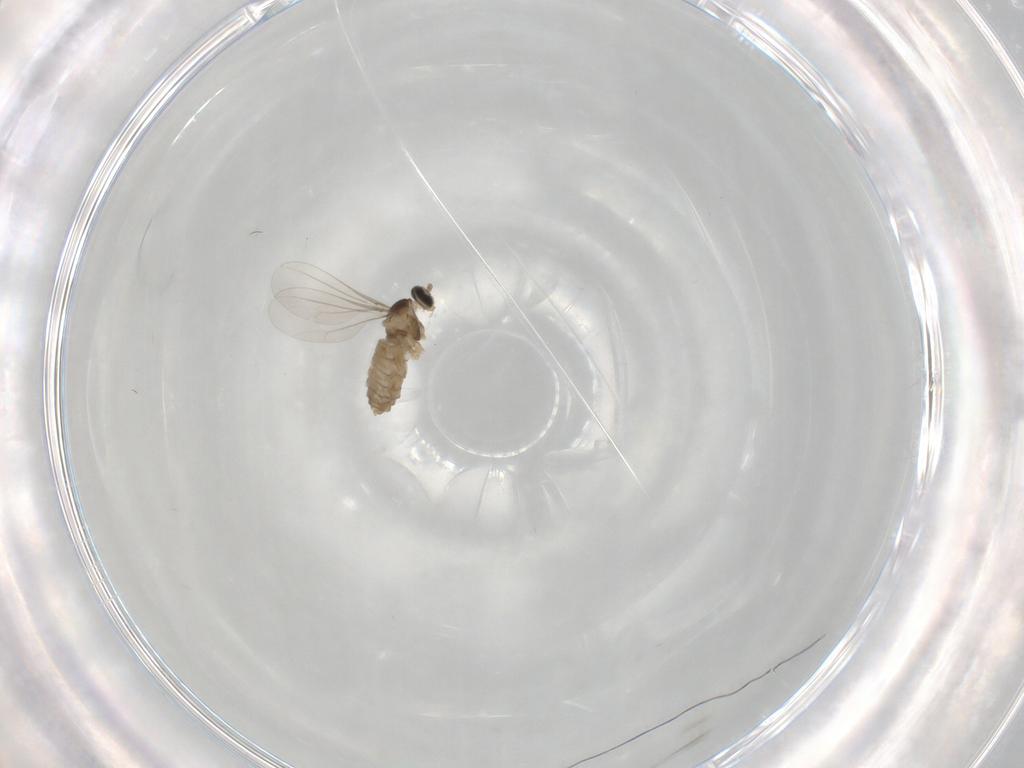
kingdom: Animalia
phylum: Arthropoda
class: Insecta
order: Diptera
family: Cecidomyiidae
